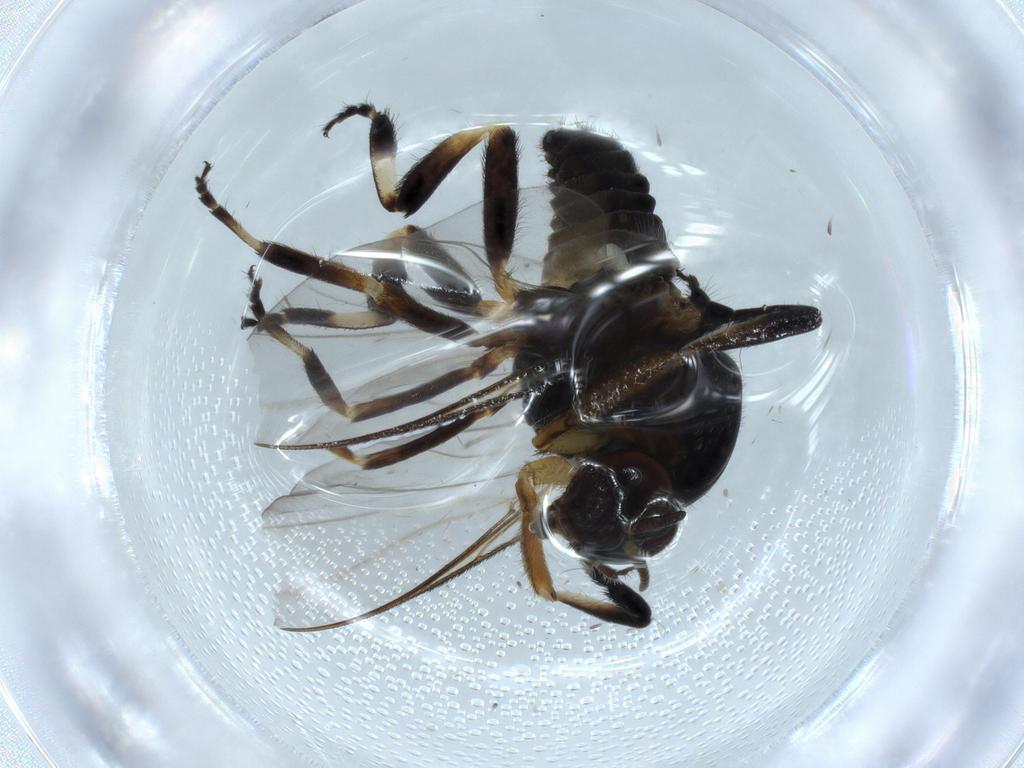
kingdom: Animalia
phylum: Arthropoda
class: Insecta
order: Diptera
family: Cecidomyiidae
